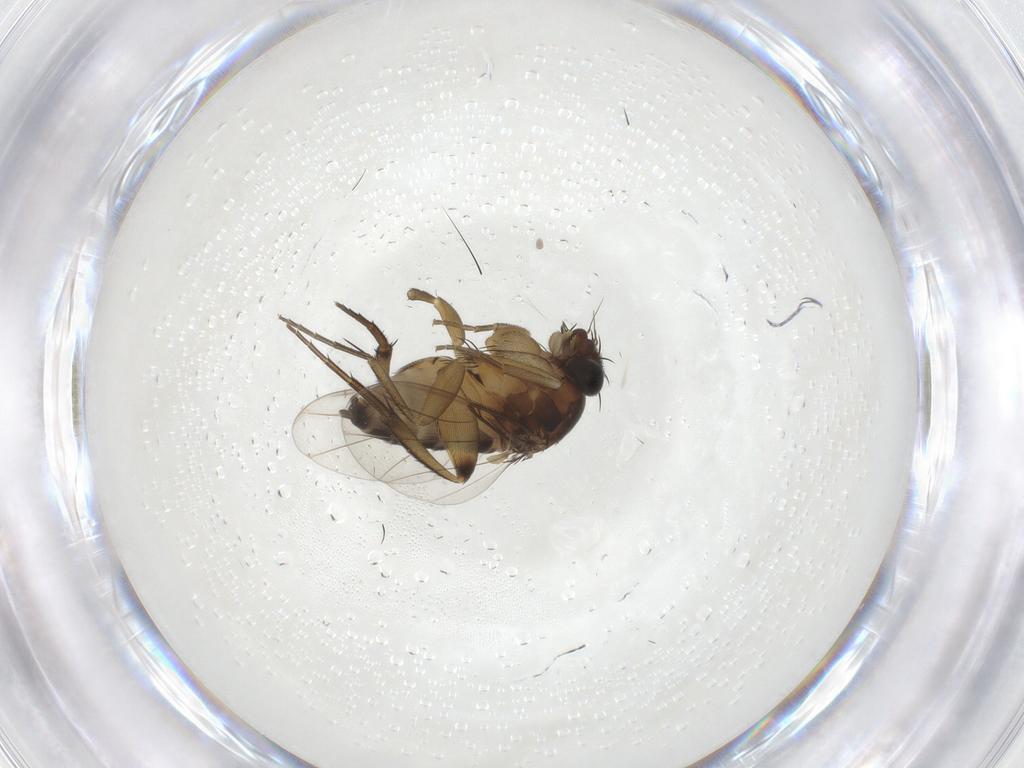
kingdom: Animalia
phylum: Arthropoda
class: Insecta
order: Diptera
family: Phoridae
